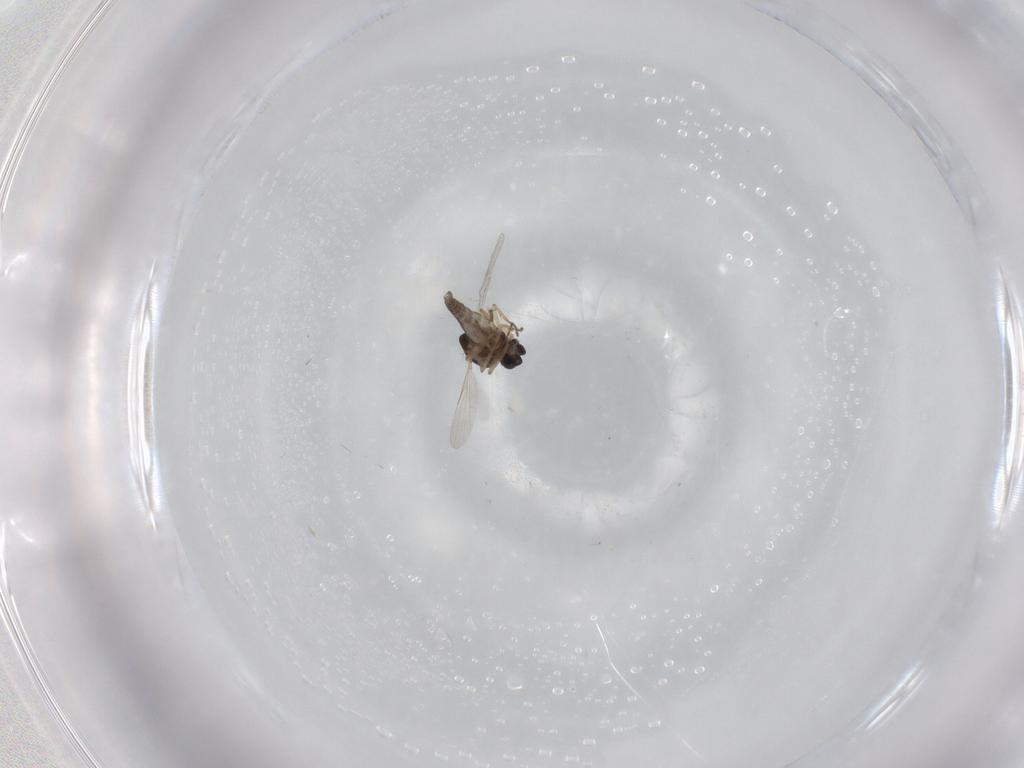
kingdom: Animalia
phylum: Arthropoda
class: Insecta
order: Diptera
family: Ceratopogonidae
